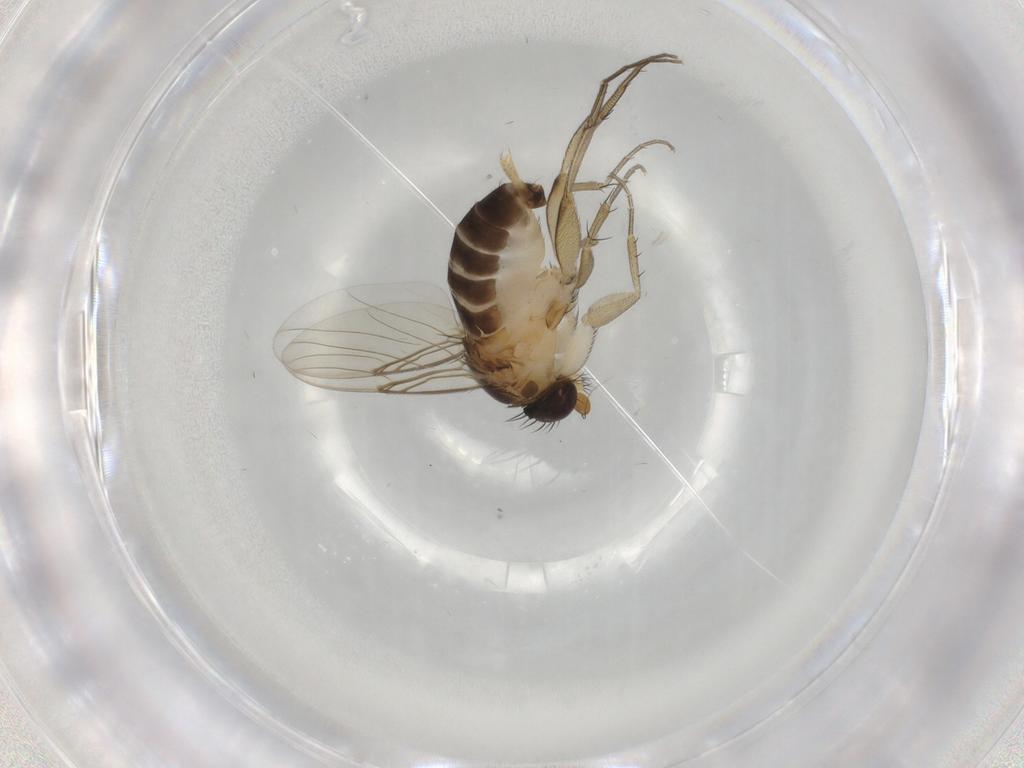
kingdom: Animalia
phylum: Arthropoda
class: Insecta
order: Diptera
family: Phoridae
